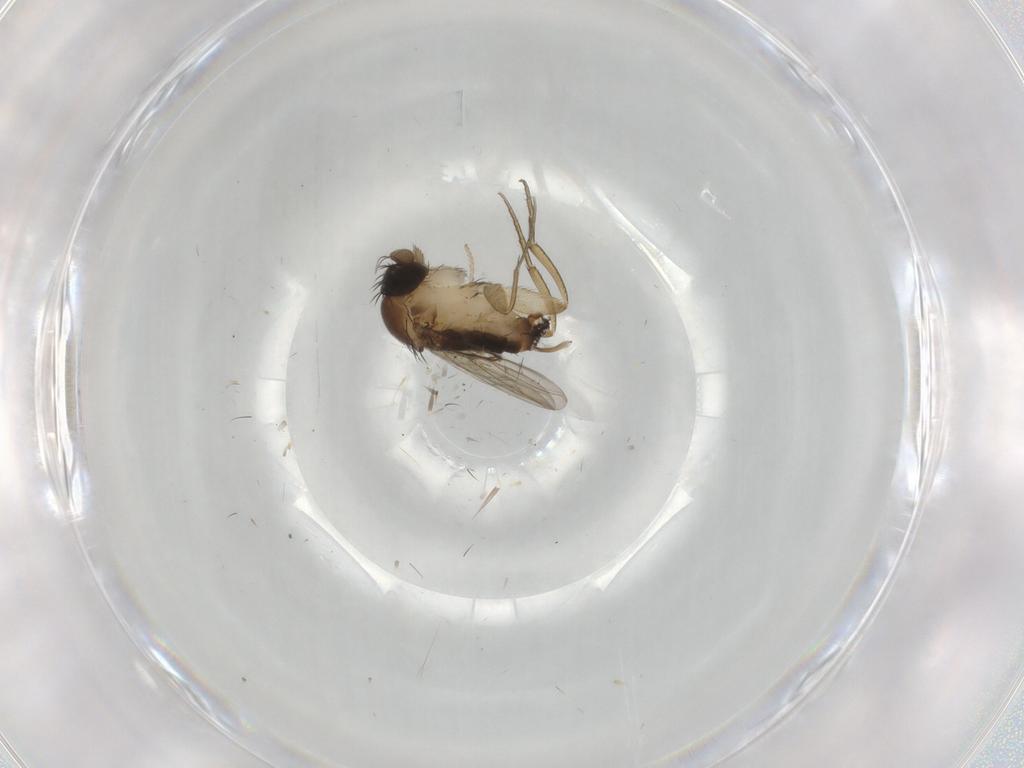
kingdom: Animalia
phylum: Arthropoda
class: Insecta
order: Diptera
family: Phoridae
